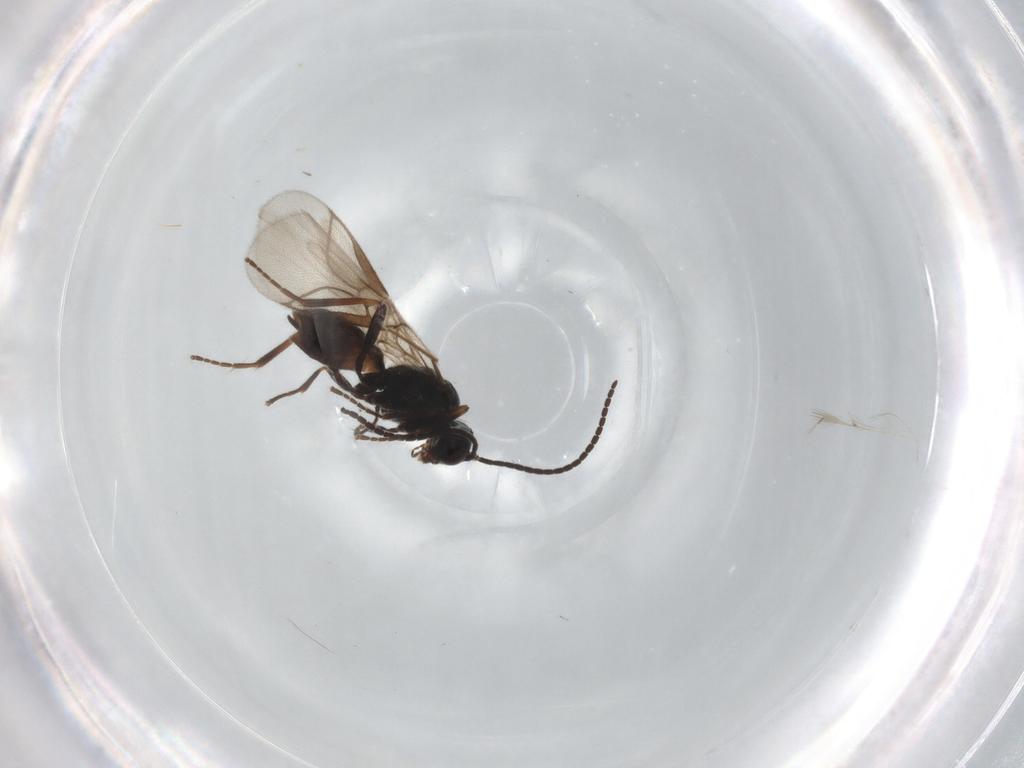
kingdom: Animalia
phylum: Arthropoda
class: Insecta
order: Hymenoptera
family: Braconidae
